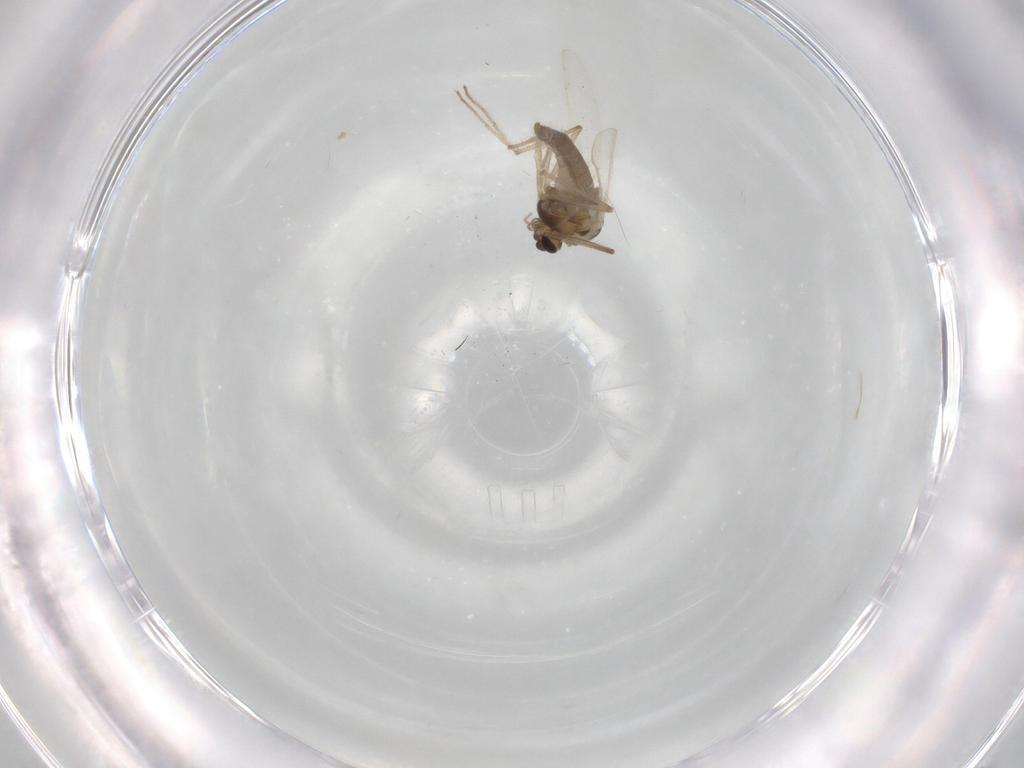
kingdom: Animalia
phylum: Arthropoda
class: Insecta
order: Diptera
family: Chironomidae
